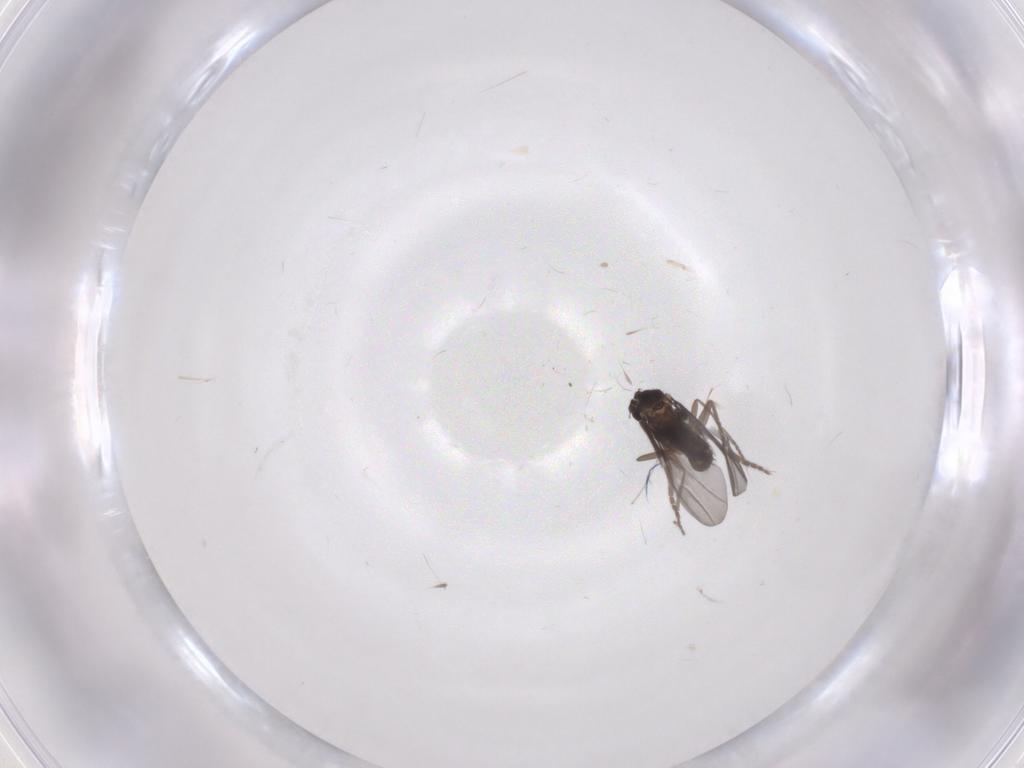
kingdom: Animalia
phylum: Arthropoda
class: Insecta
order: Diptera
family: Phoridae
